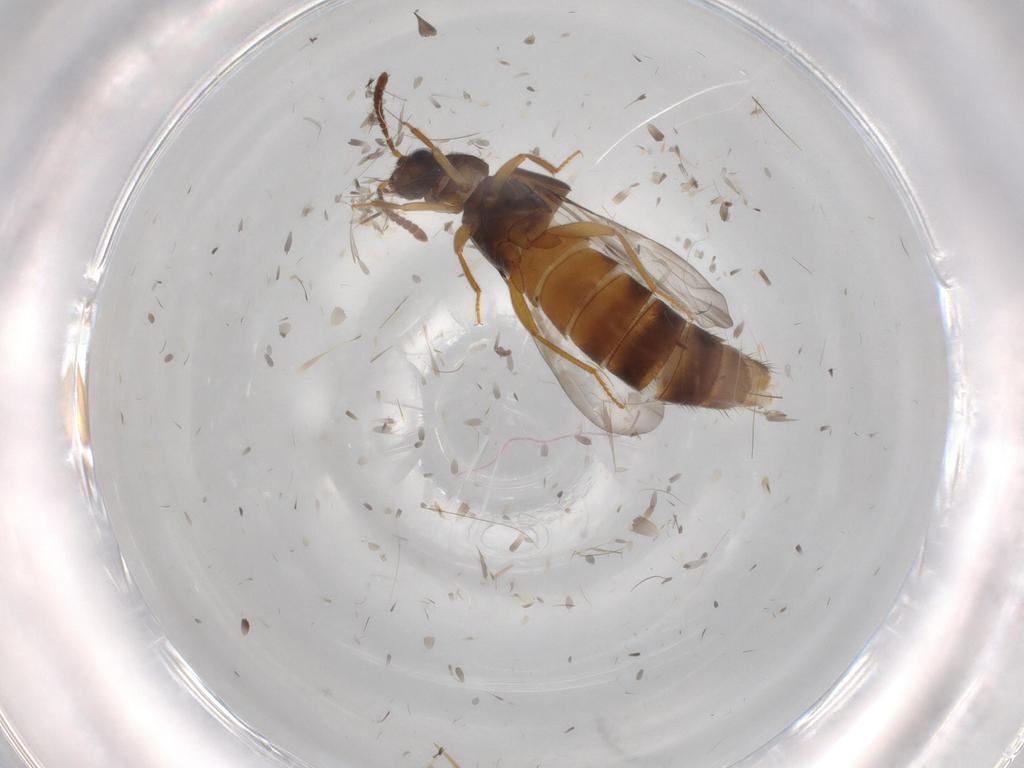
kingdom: Animalia
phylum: Arthropoda
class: Insecta
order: Coleoptera
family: Staphylinidae
